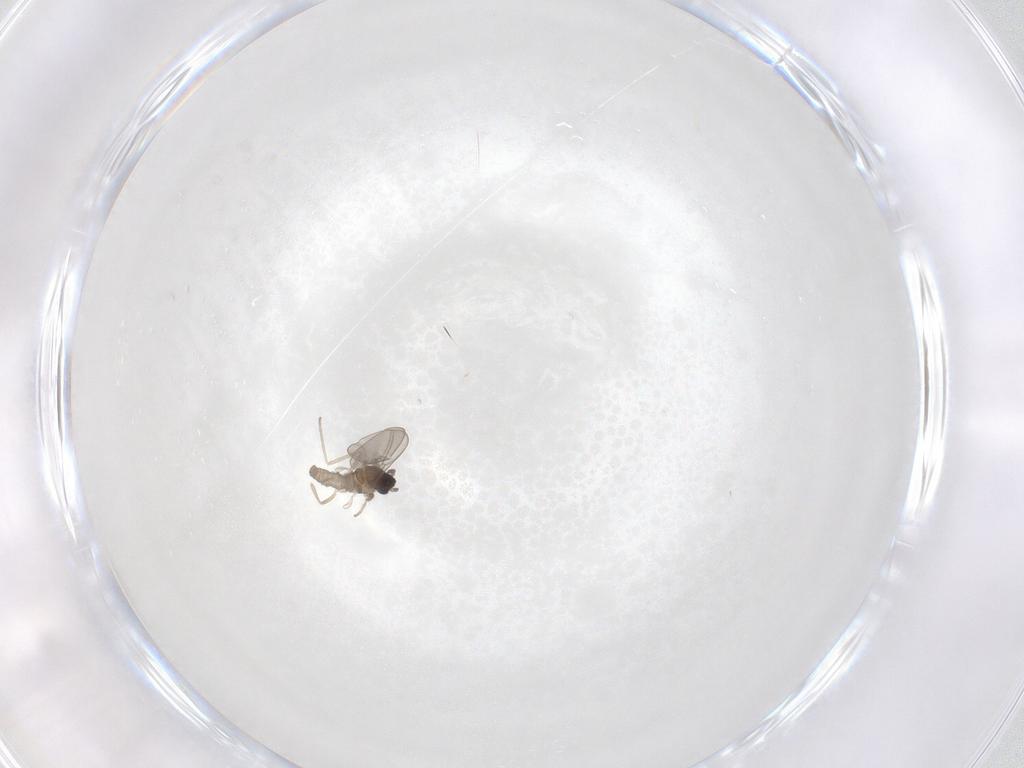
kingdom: Animalia
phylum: Arthropoda
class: Insecta
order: Diptera
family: Cecidomyiidae
